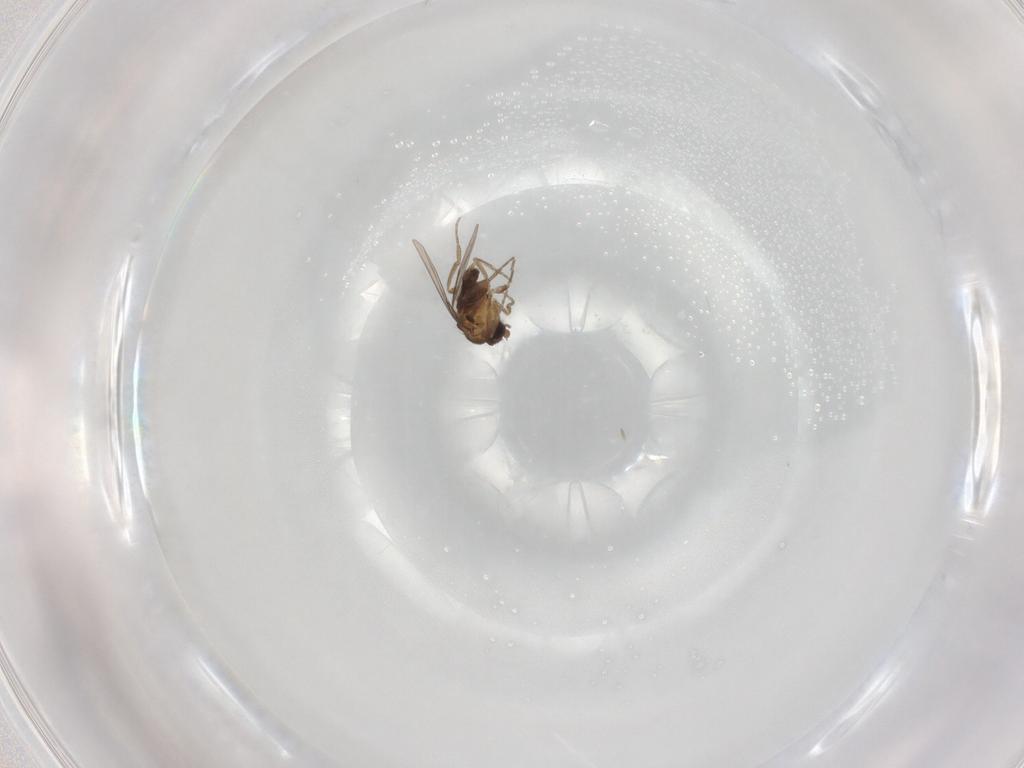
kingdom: Animalia
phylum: Arthropoda
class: Insecta
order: Diptera
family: Phoridae
